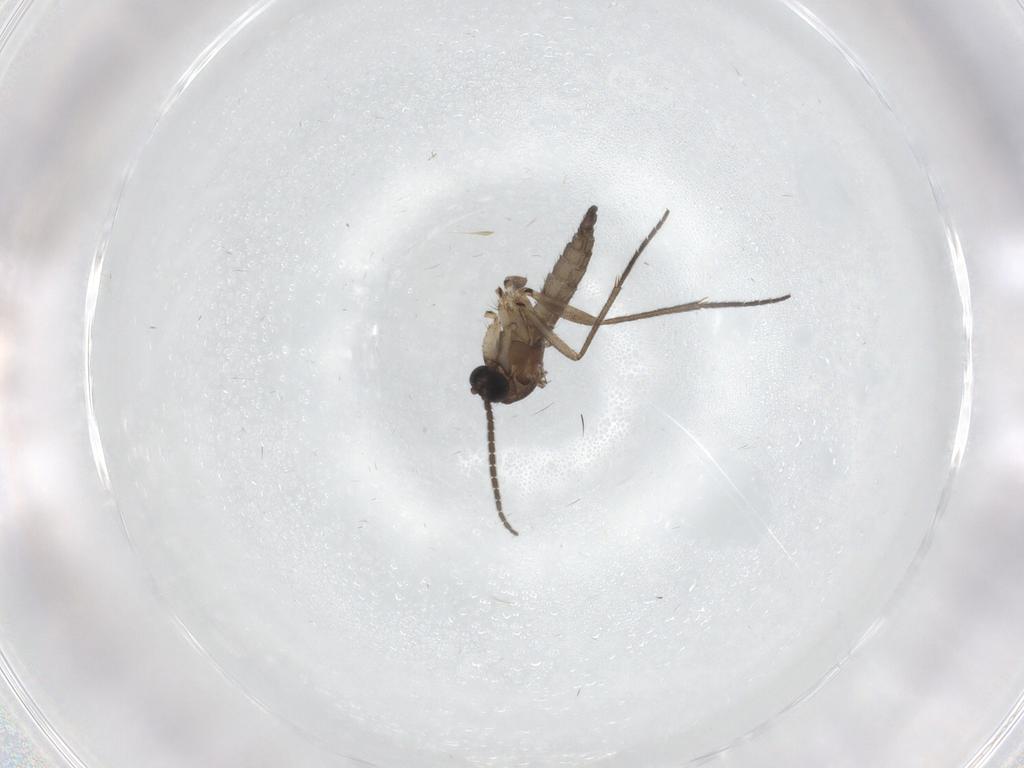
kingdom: Animalia
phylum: Arthropoda
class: Insecta
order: Diptera
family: Sciaridae
